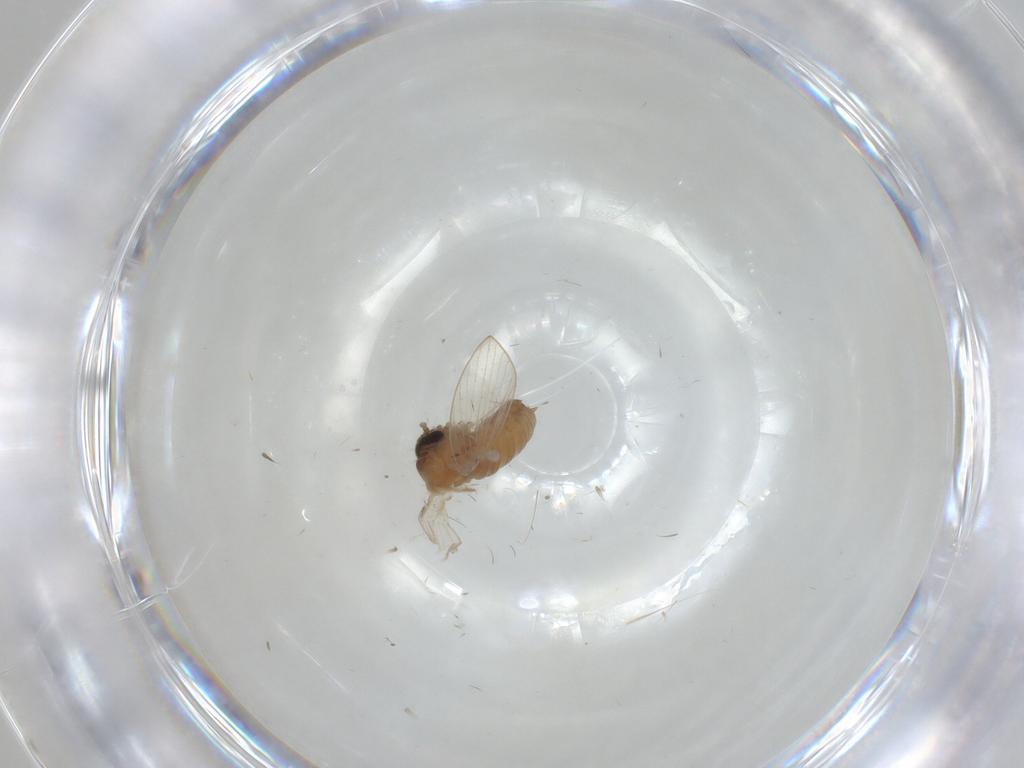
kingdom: Animalia
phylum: Arthropoda
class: Insecta
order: Diptera
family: Psychodidae
